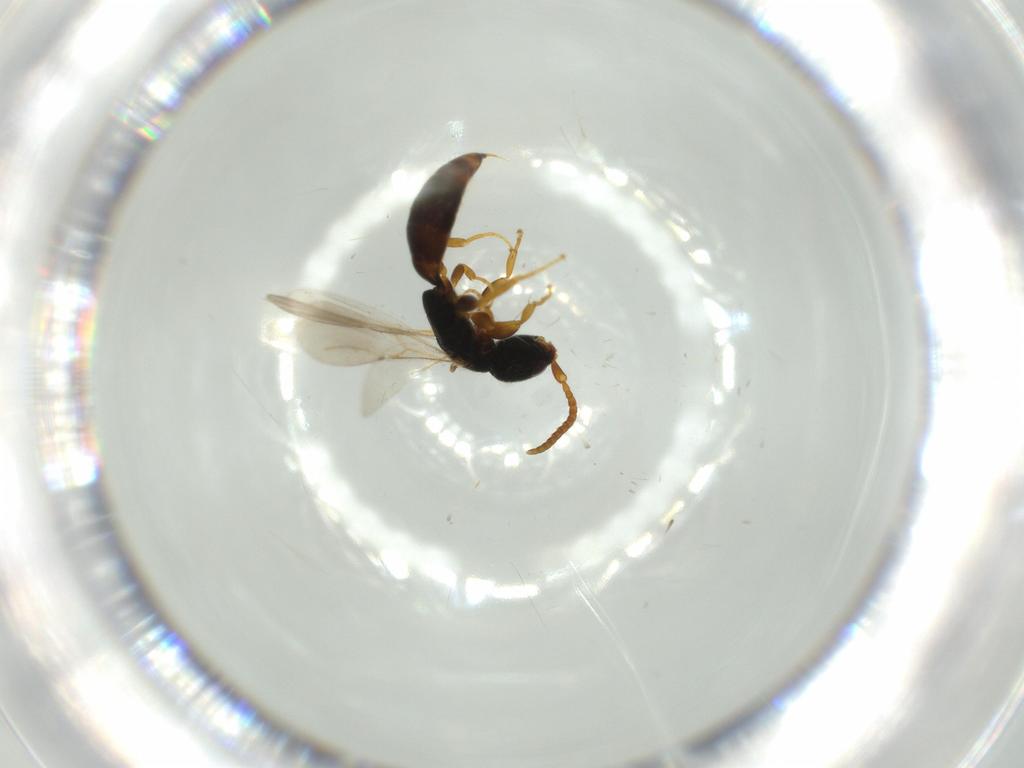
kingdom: Animalia
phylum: Arthropoda
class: Insecta
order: Hymenoptera
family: Bethylidae
